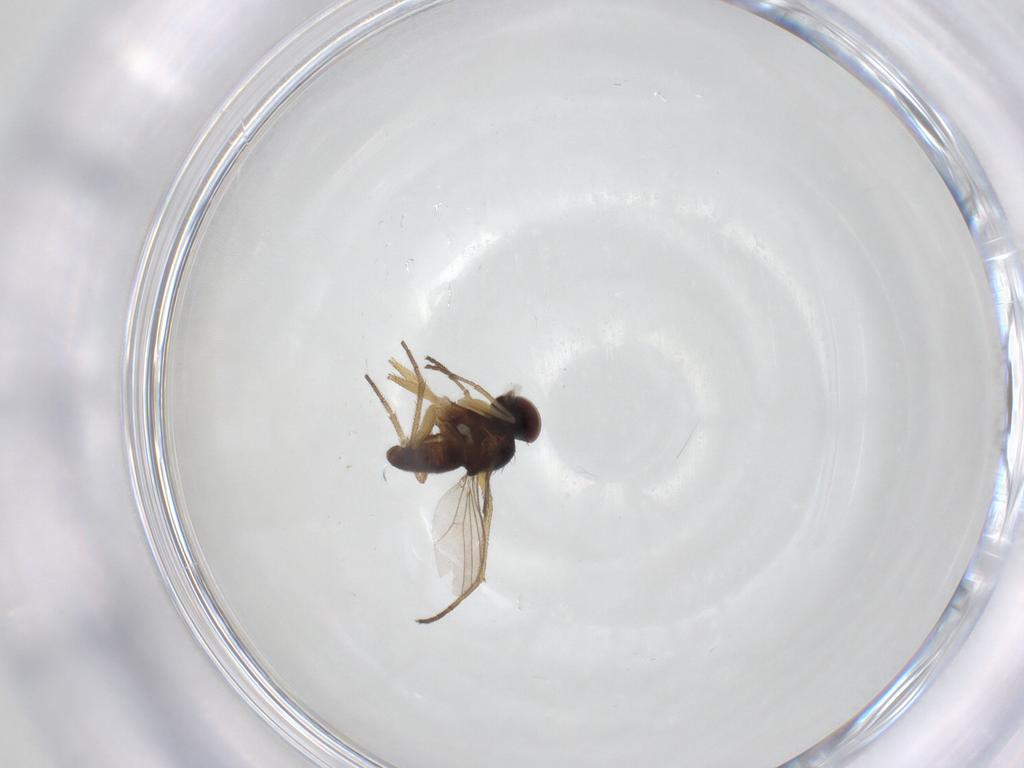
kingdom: Animalia
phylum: Arthropoda
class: Insecta
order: Diptera
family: Dolichopodidae
